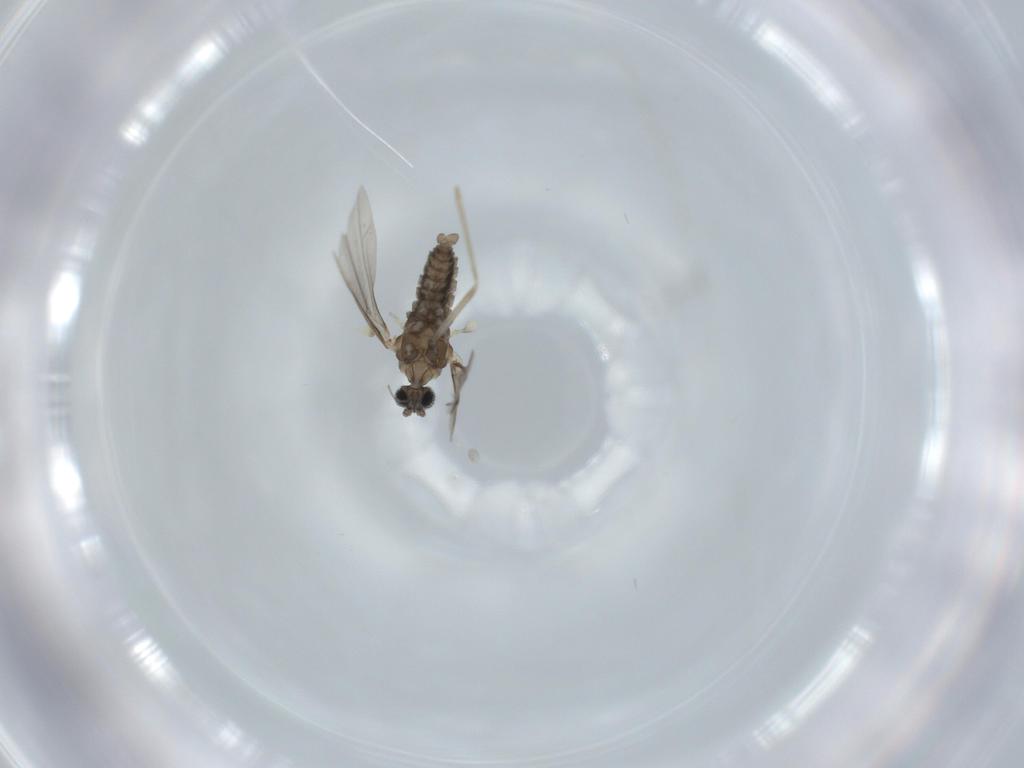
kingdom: Animalia
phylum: Arthropoda
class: Insecta
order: Diptera
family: Cecidomyiidae
